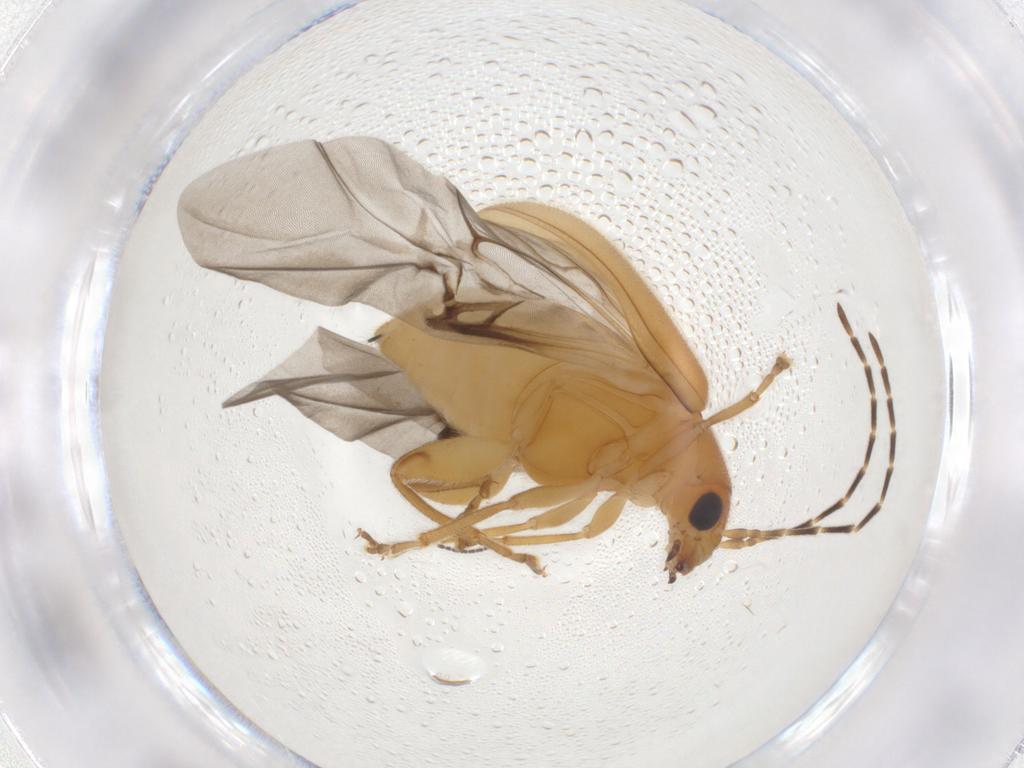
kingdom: Animalia
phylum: Arthropoda
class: Insecta
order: Coleoptera
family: Chrysomelidae
